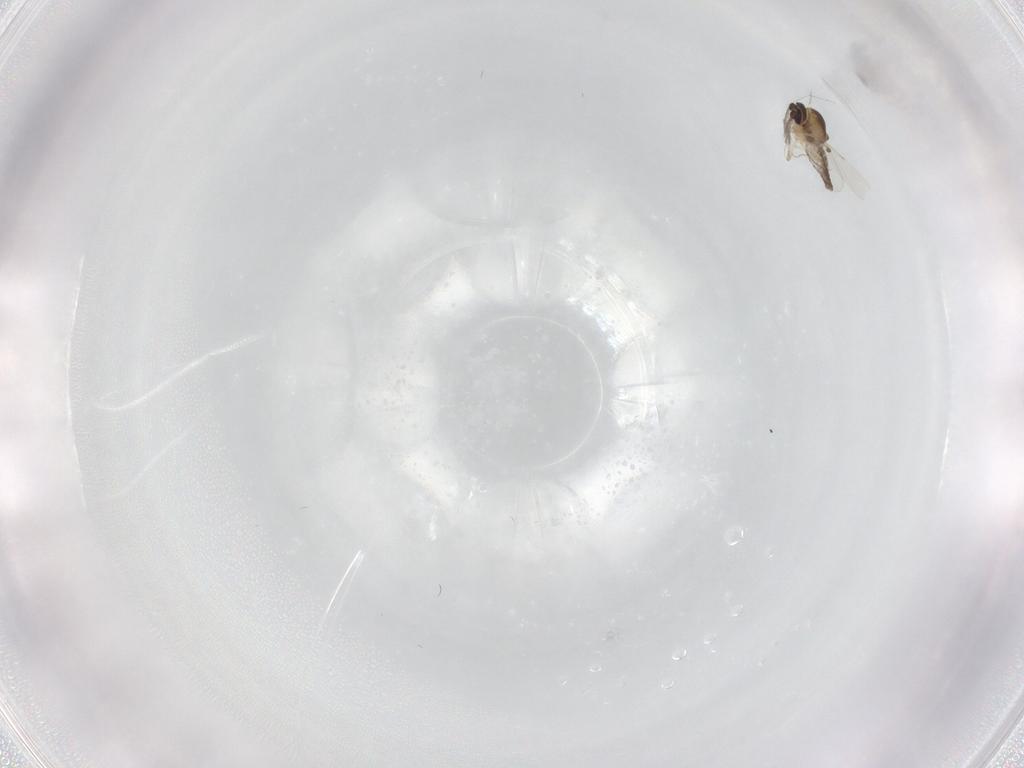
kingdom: Animalia
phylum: Arthropoda
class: Insecta
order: Diptera
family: Ceratopogonidae
